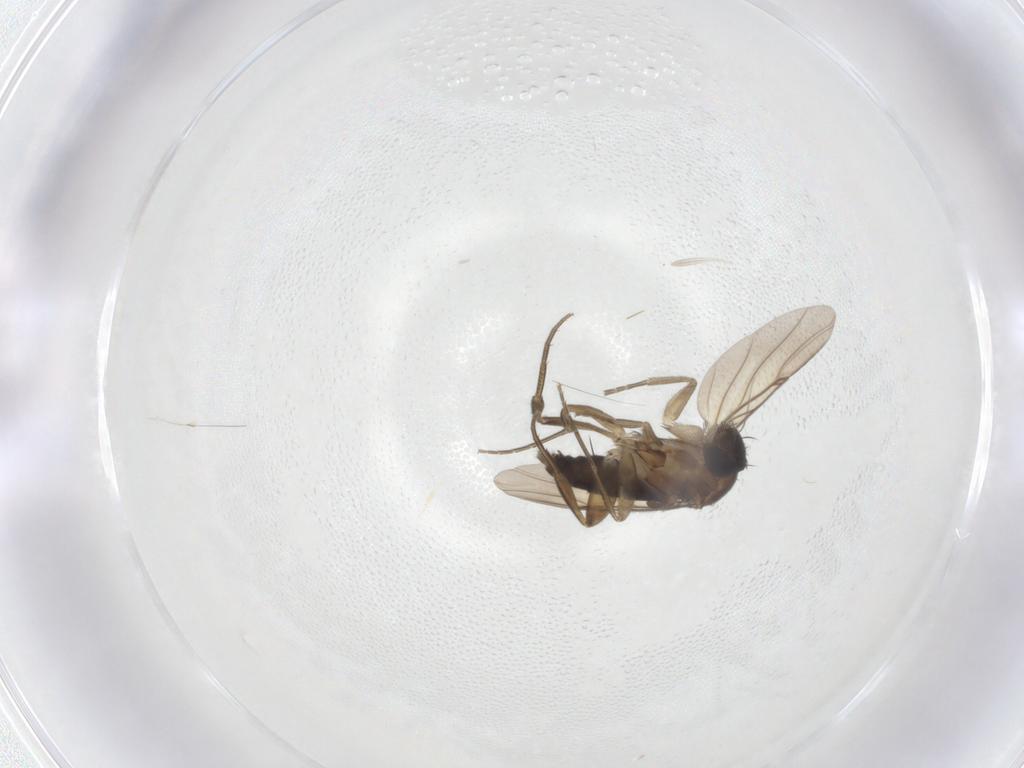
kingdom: Animalia
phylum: Arthropoda
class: Insecta
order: Diptera
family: Phoridae
